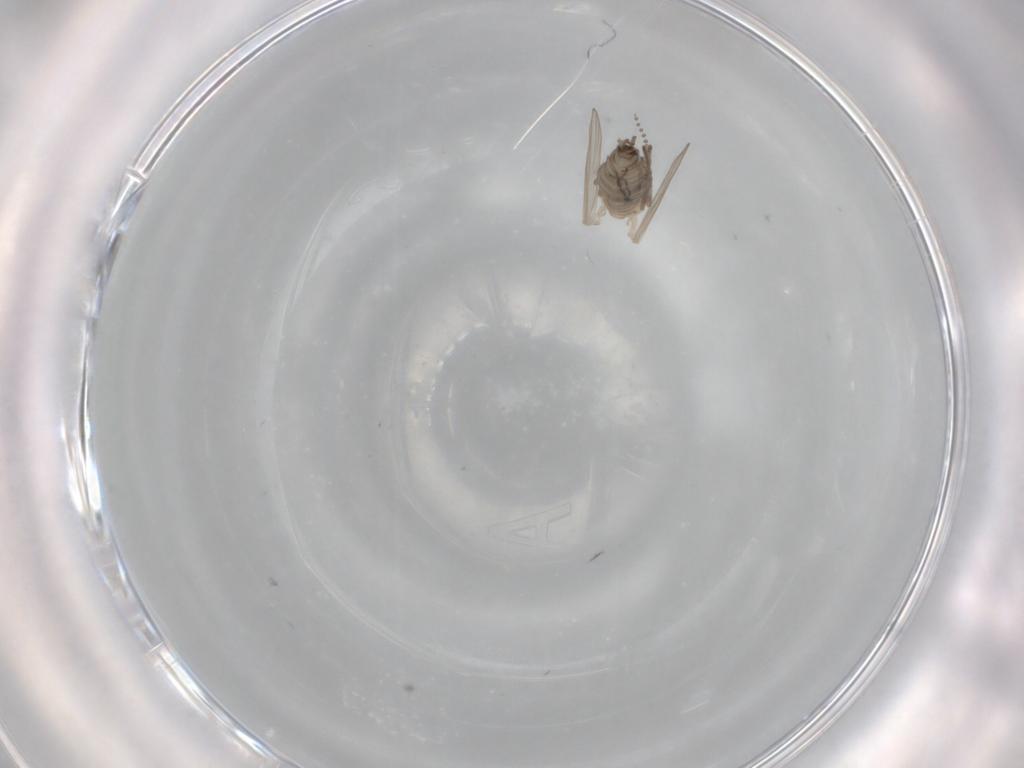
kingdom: Animalia
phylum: Arthropoda
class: Insecta
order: Diptera
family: Psychodidae
